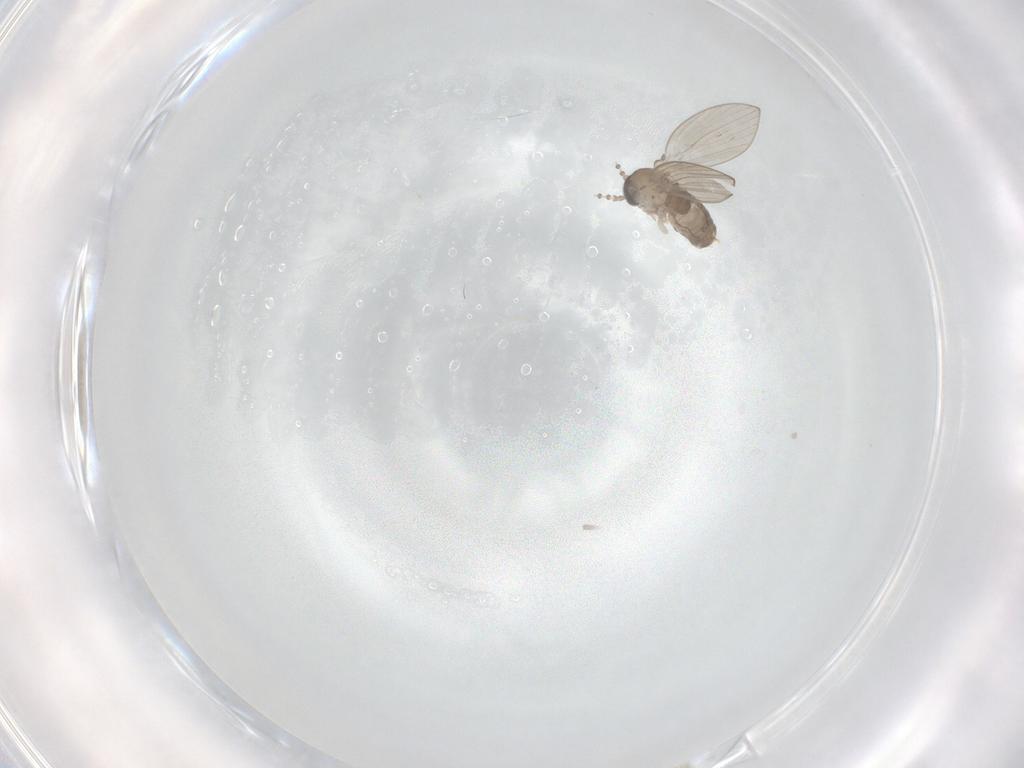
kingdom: Animalia
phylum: Arthropoda
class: Insecta
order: Diptera
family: Psychodidae
